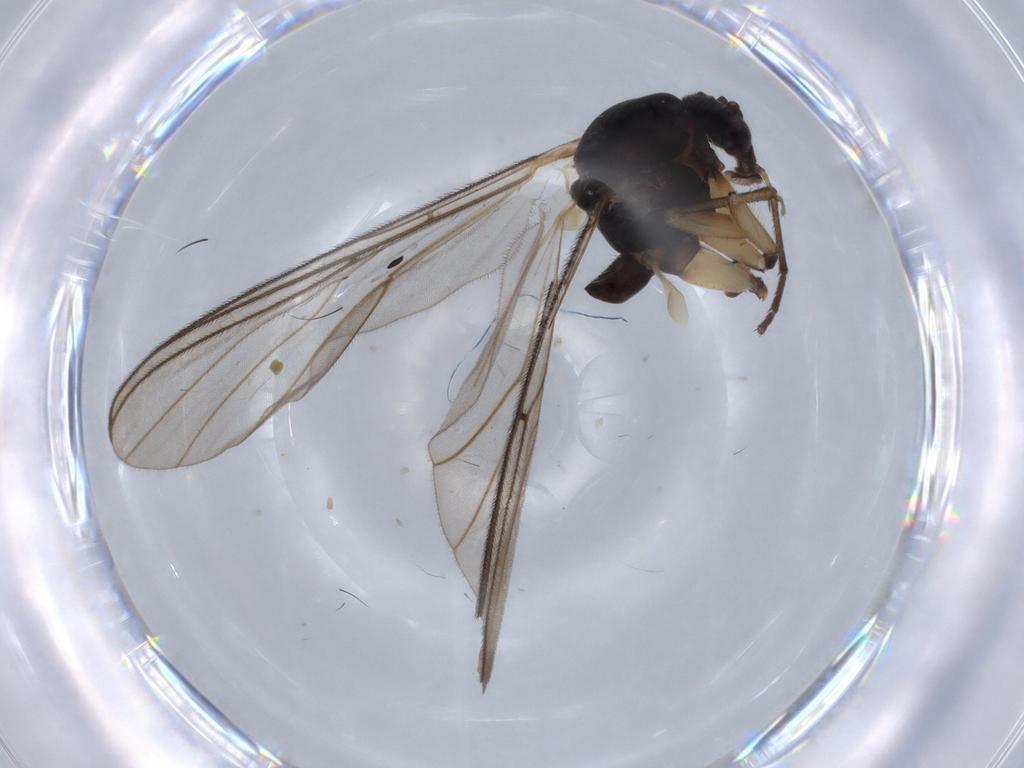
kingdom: Animalia
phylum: Arthropoda
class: Insecta
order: Diptera
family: Mycetophilidae
